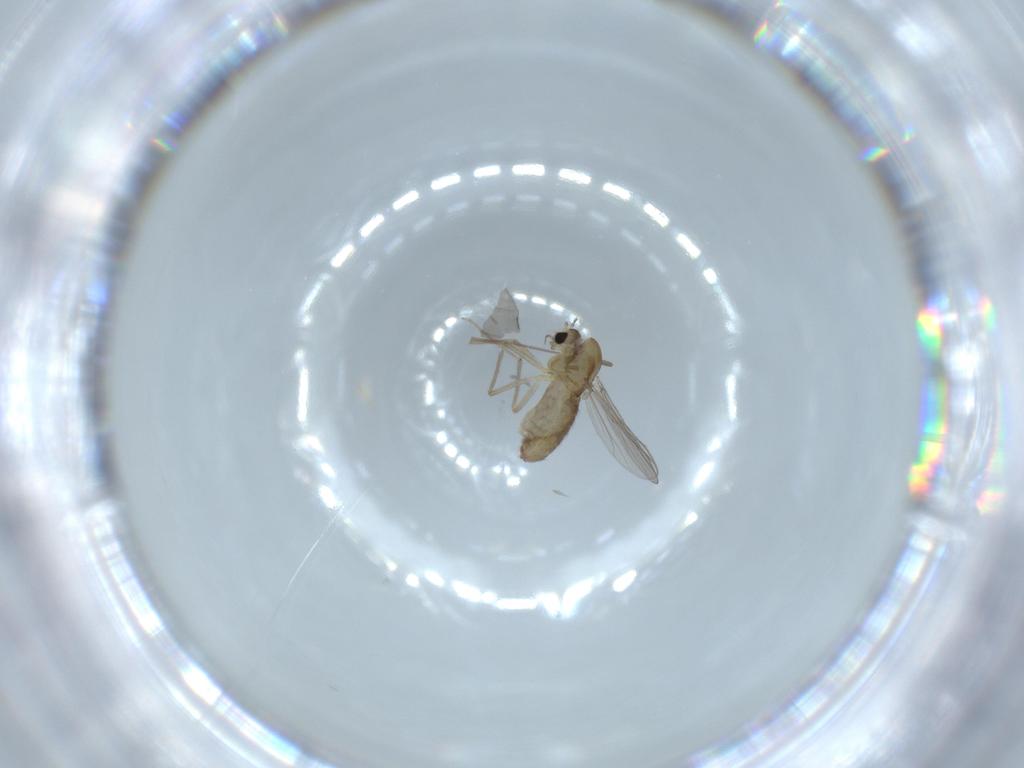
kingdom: Animalia
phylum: Arthropoda
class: Insecta
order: Diptera
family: Chironomidae
